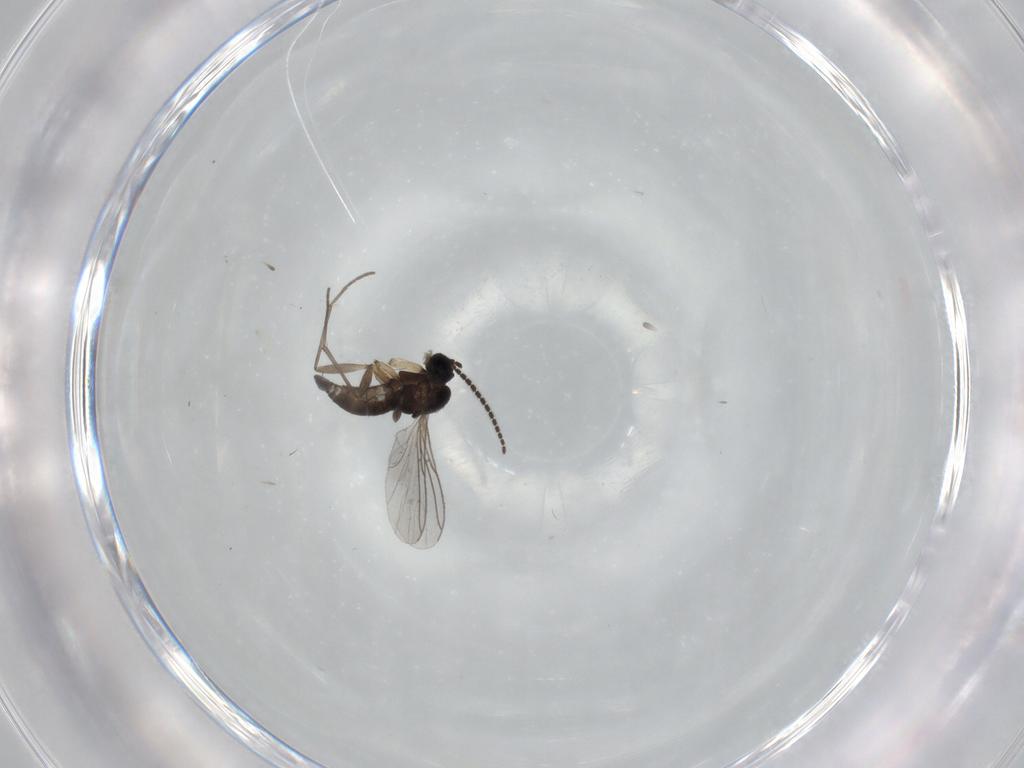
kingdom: Animalia
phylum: Arthropoda
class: Insecta
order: Diptera
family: Sciaridae
